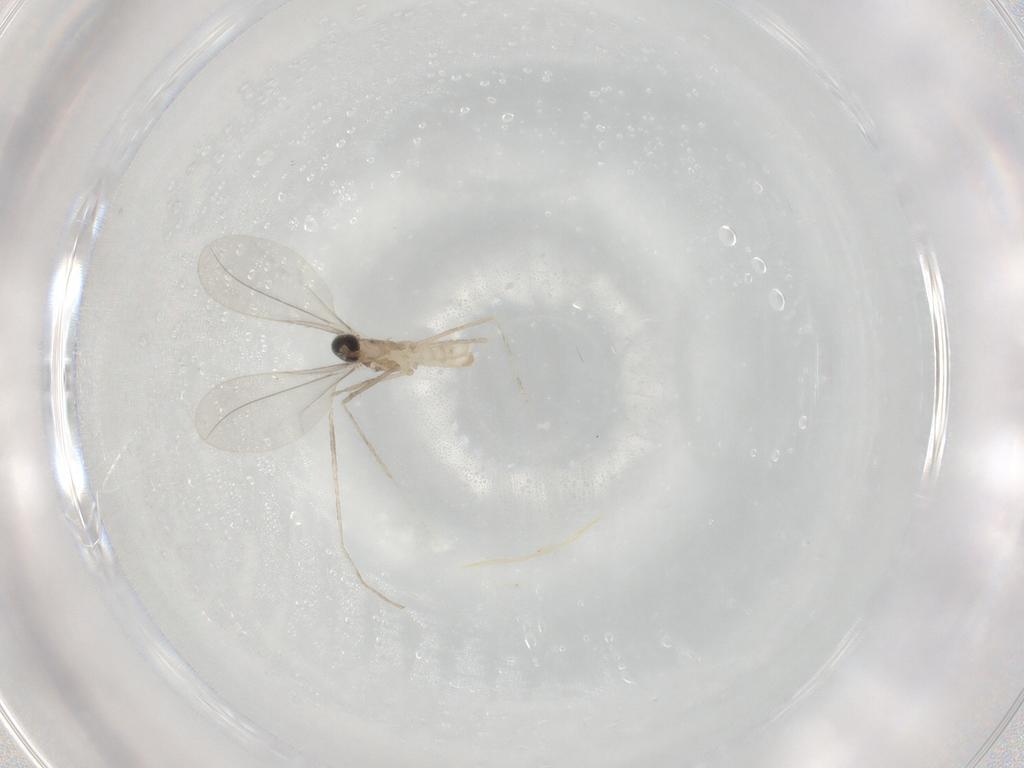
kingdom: Animalia
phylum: Arthropoda
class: Insecta
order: Diptera
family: Cecidomyiidae
